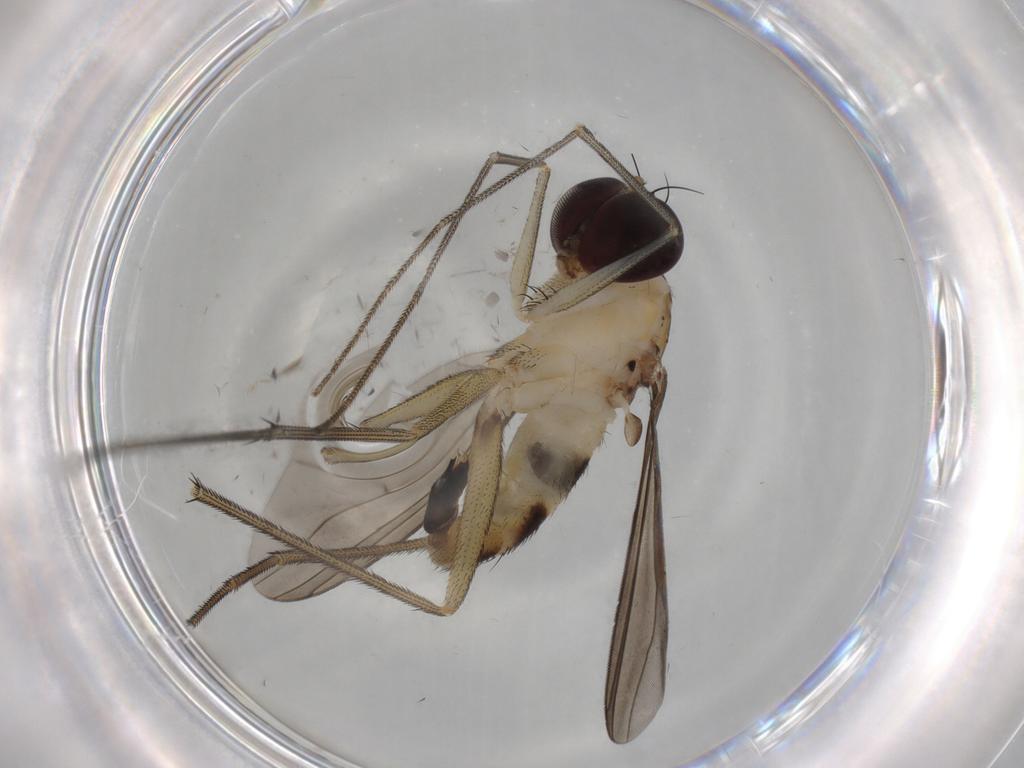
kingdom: Animalia
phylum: Arthropoda
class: Insecta
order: Diptera
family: Dolichopodidae
